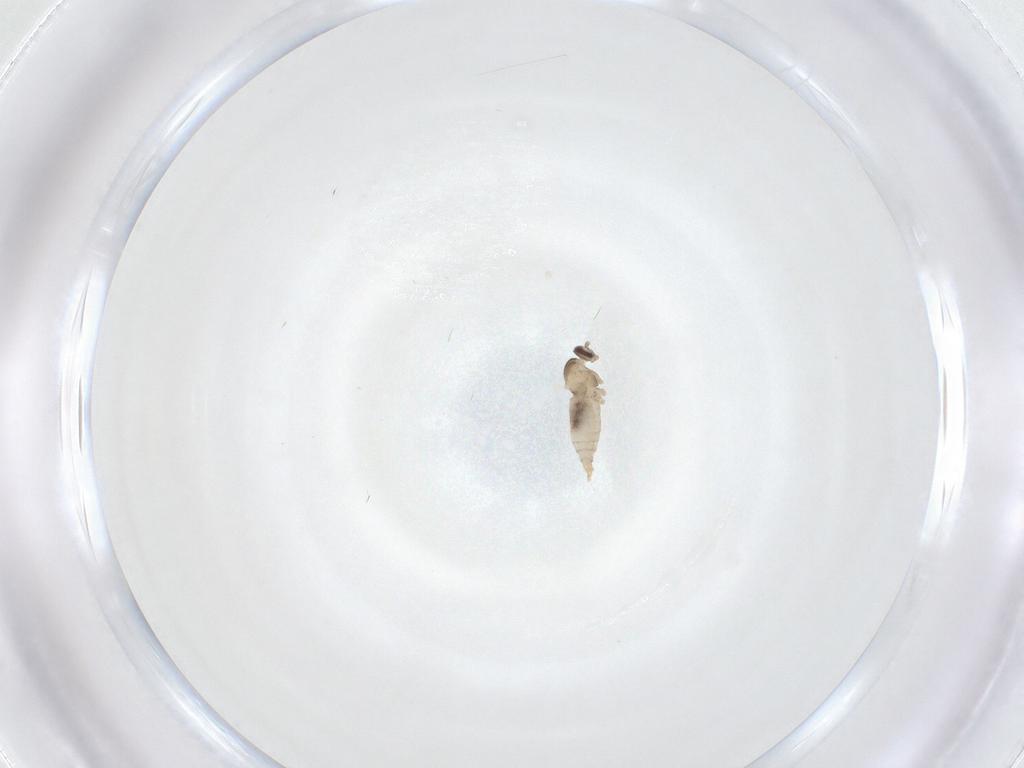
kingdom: Animalia
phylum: Arthropoda
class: Insecta
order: Diptera
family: Cecidomyiidae
